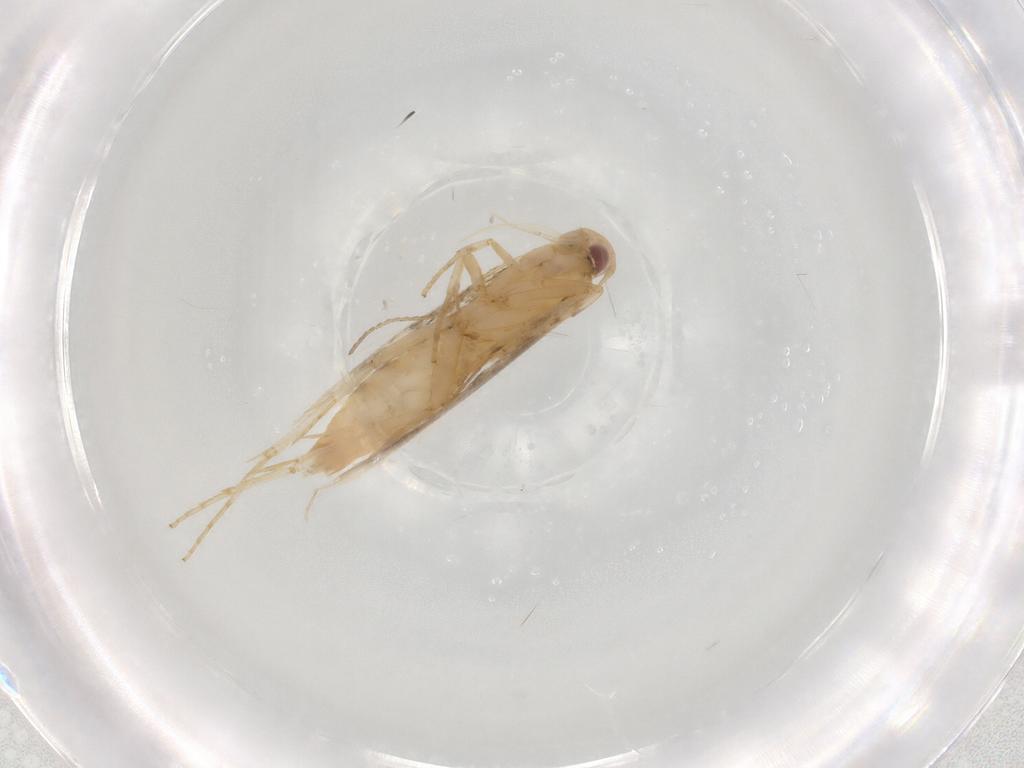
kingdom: Animalia
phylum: Arthropoda
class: Insecta
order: Lepidoptera
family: Cosmopterigidae
